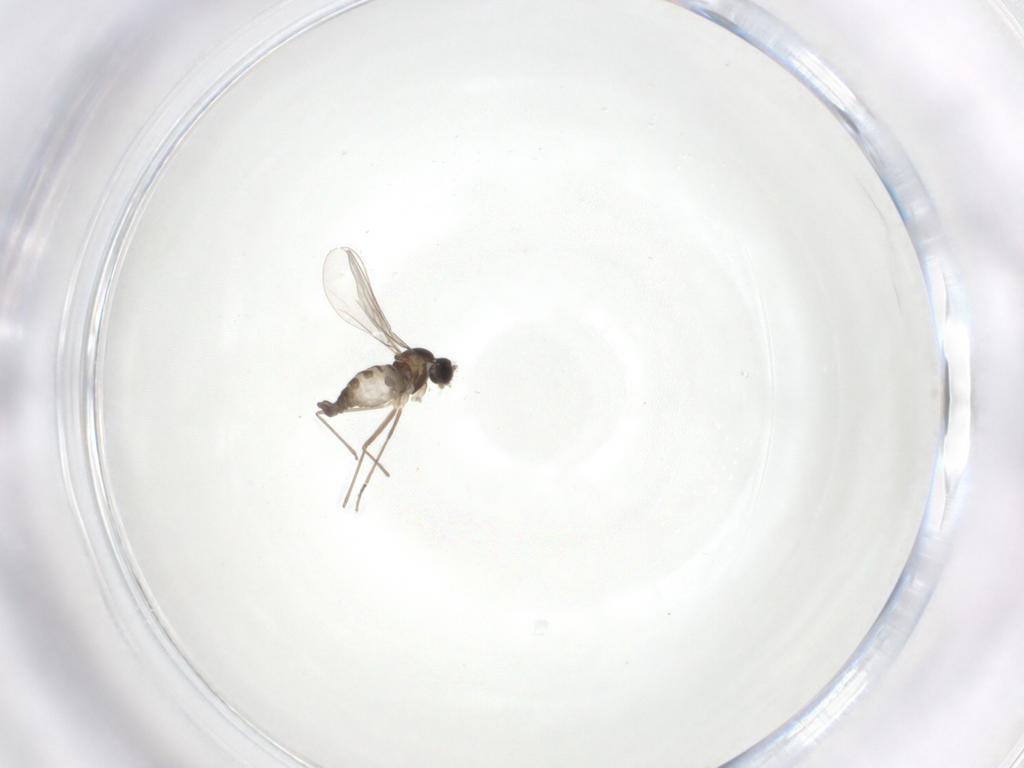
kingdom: Animalia
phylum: Arthropoda
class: Insecta
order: Diptera
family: Cecidomyiidae
